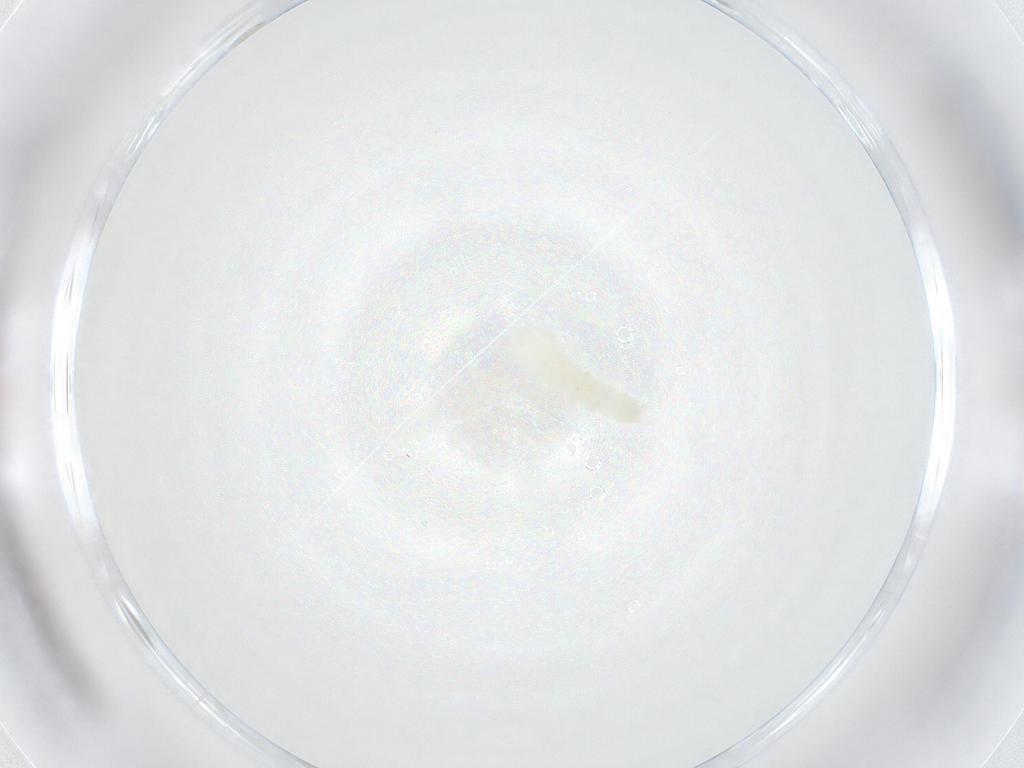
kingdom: Animalia
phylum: Arthropoda
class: Collembola
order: Poduromorpha
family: Onychiuridae
